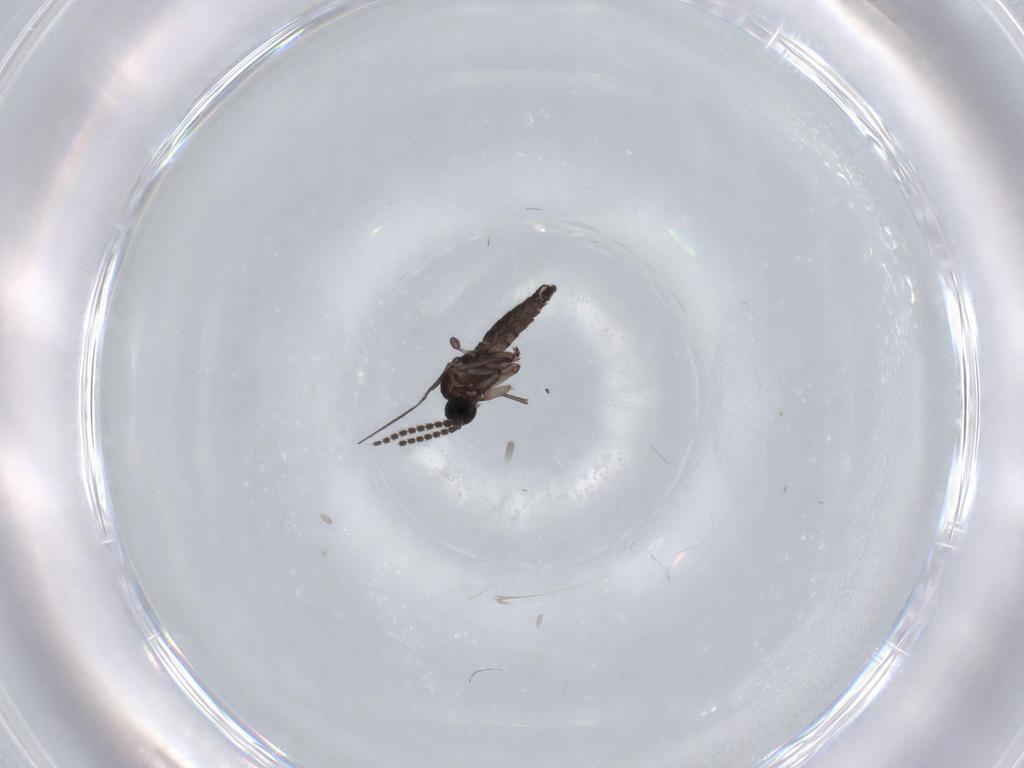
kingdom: Animalia
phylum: Arthropoda
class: Insecta
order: Diptera
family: Sciaridae
